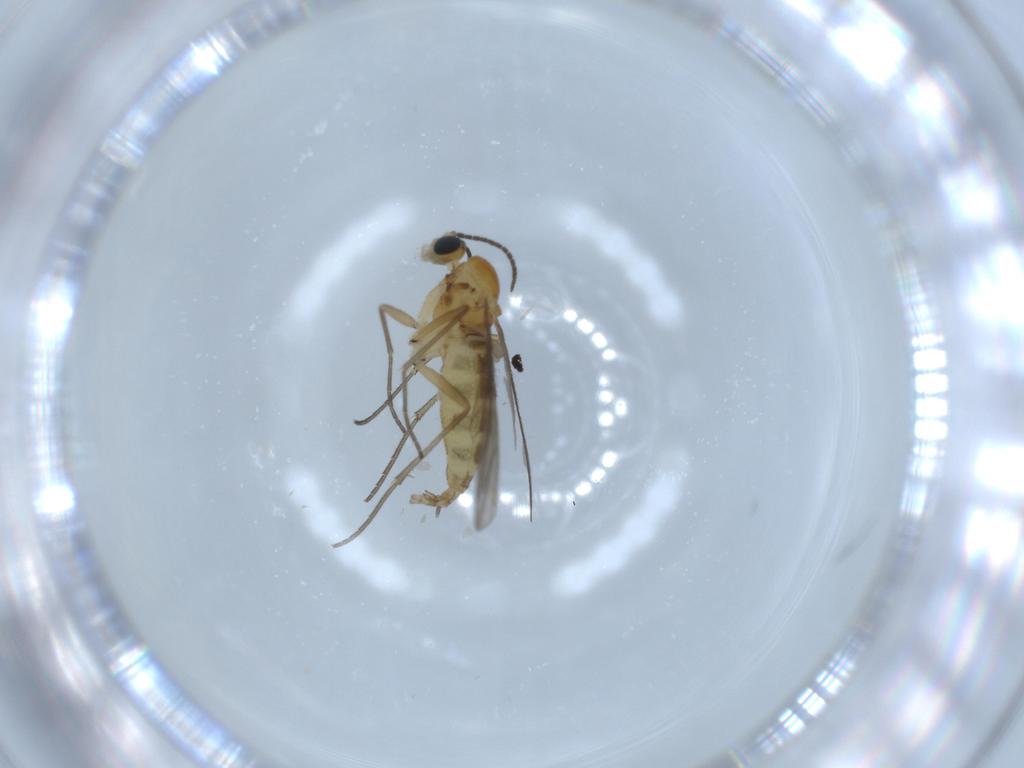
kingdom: Animalia
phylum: Arthropoda
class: Insecta
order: Diptera
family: Sciaridae
